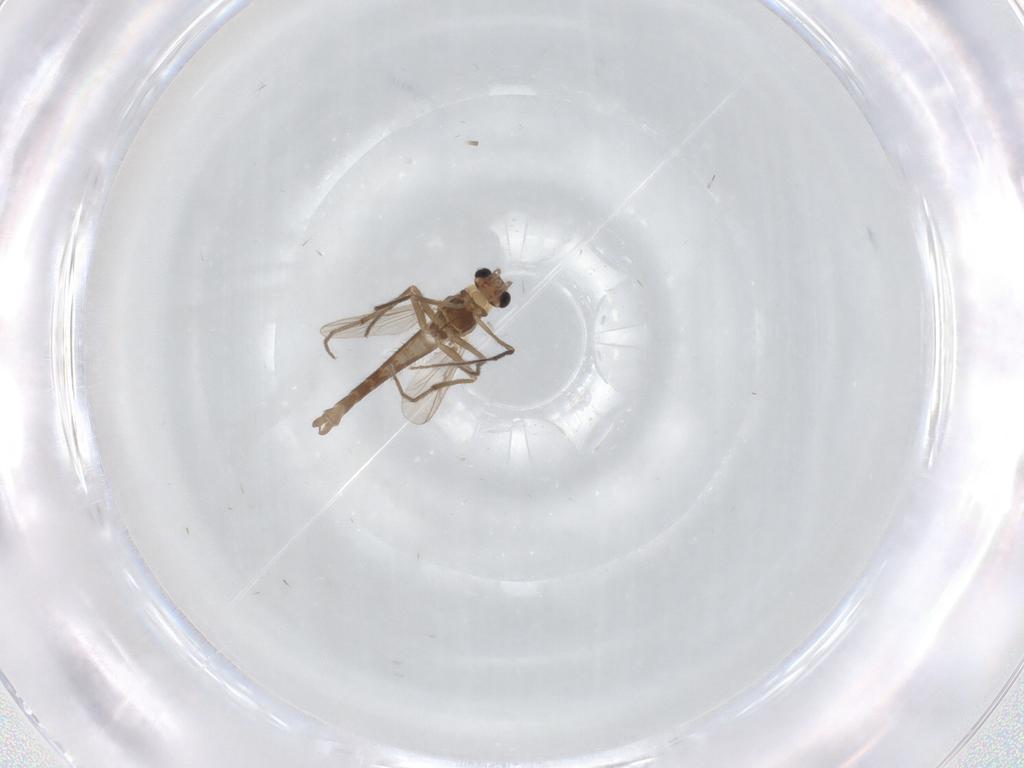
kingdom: Animalia
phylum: Arthropoda
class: Insecta
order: Diptera
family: Chironomidae
